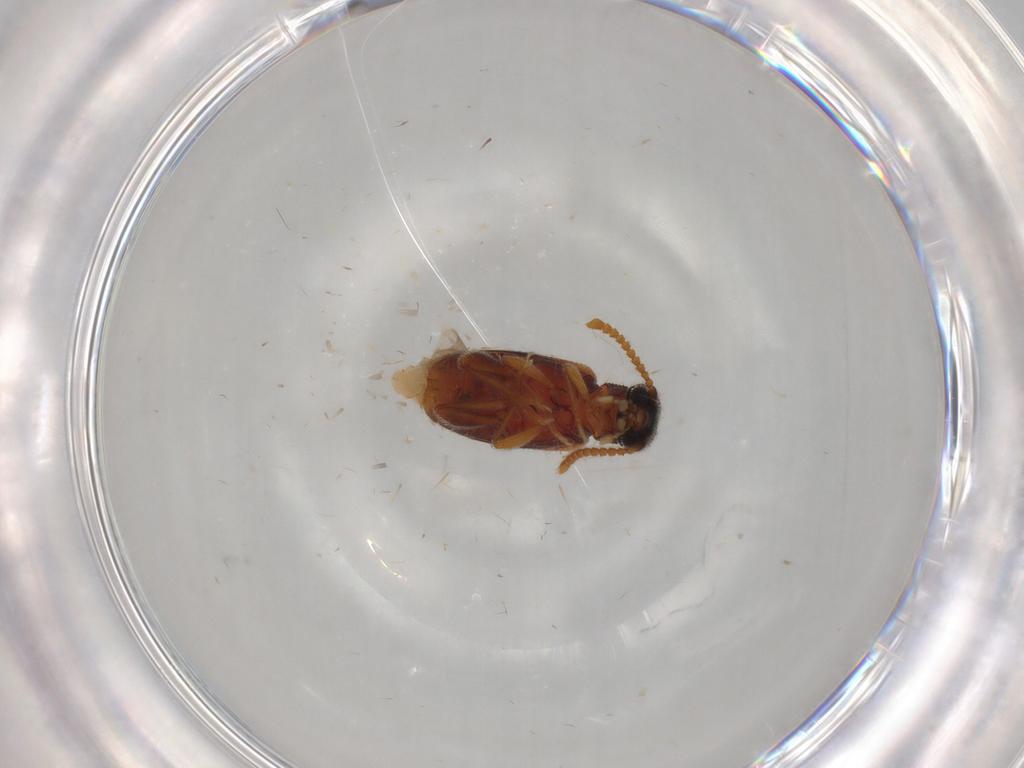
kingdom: Animalia
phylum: Arthropoda
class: Insecta
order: Coleoptera
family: Aderidae
